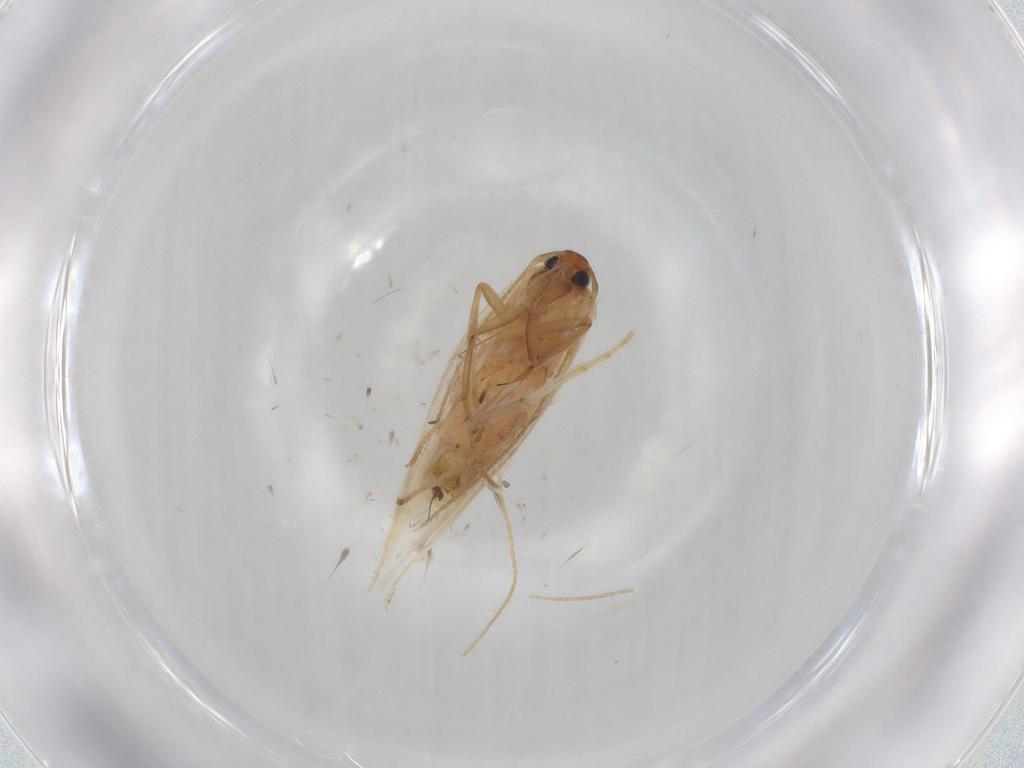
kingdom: Animalia
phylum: Arthropoda
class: Insecta
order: Lepidoptera
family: Gelechiidae
